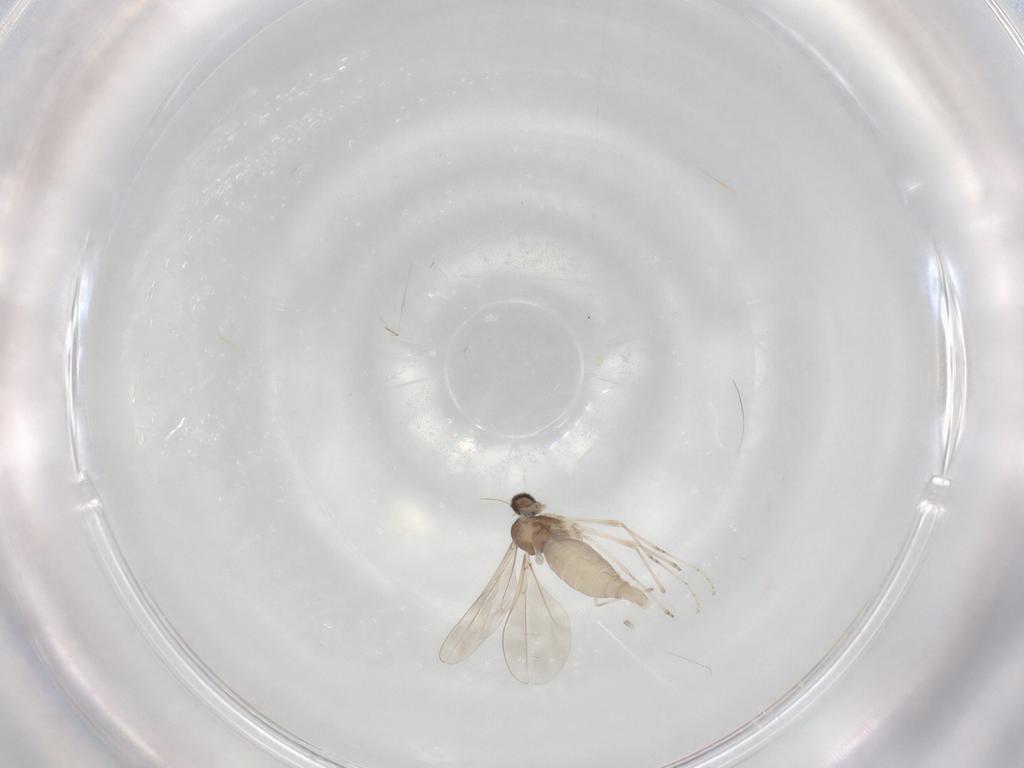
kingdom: Animalia
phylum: Arthropoda
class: Insecta
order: Diptera
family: Cecidomyiidae
